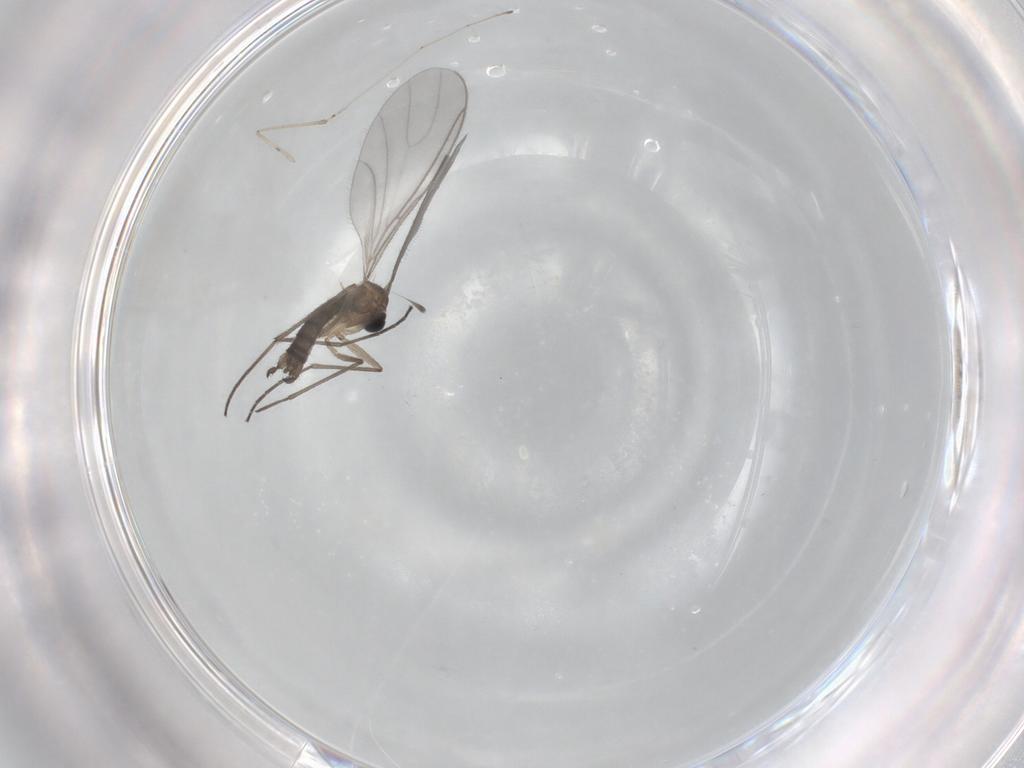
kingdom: Animalia
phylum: Arthropoda
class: Insecta
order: Diptera
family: Sciaridae
